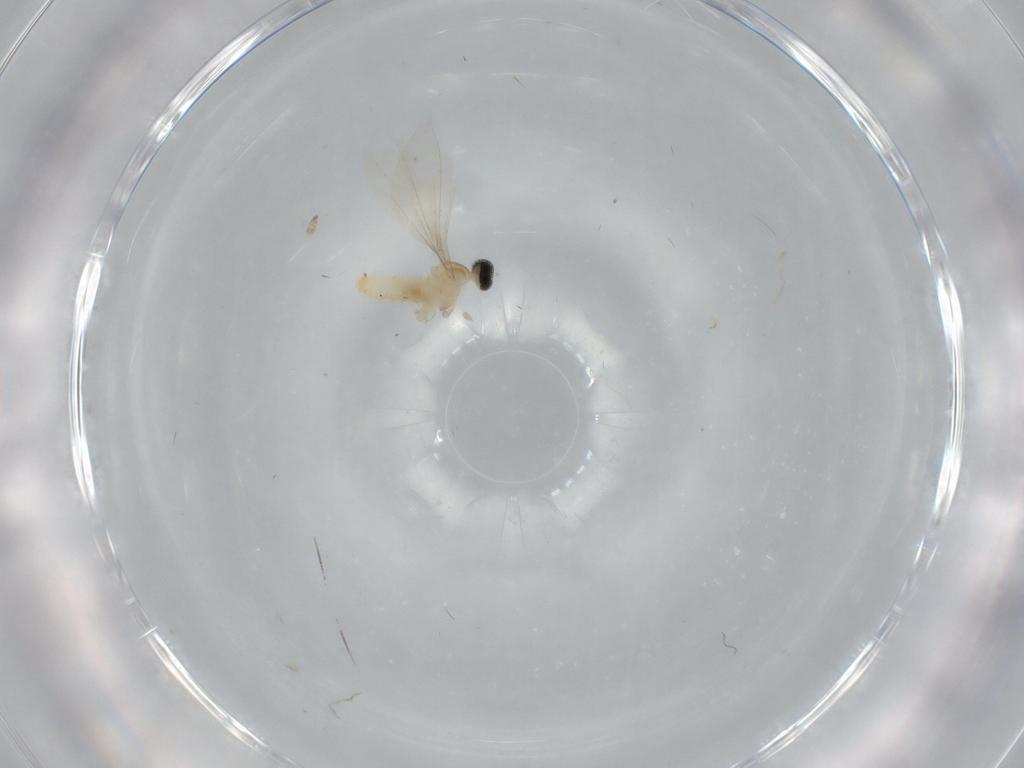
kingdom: Animalia
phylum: Arthropoda
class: Insecta
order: Diptera
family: Cecidomyiidae
